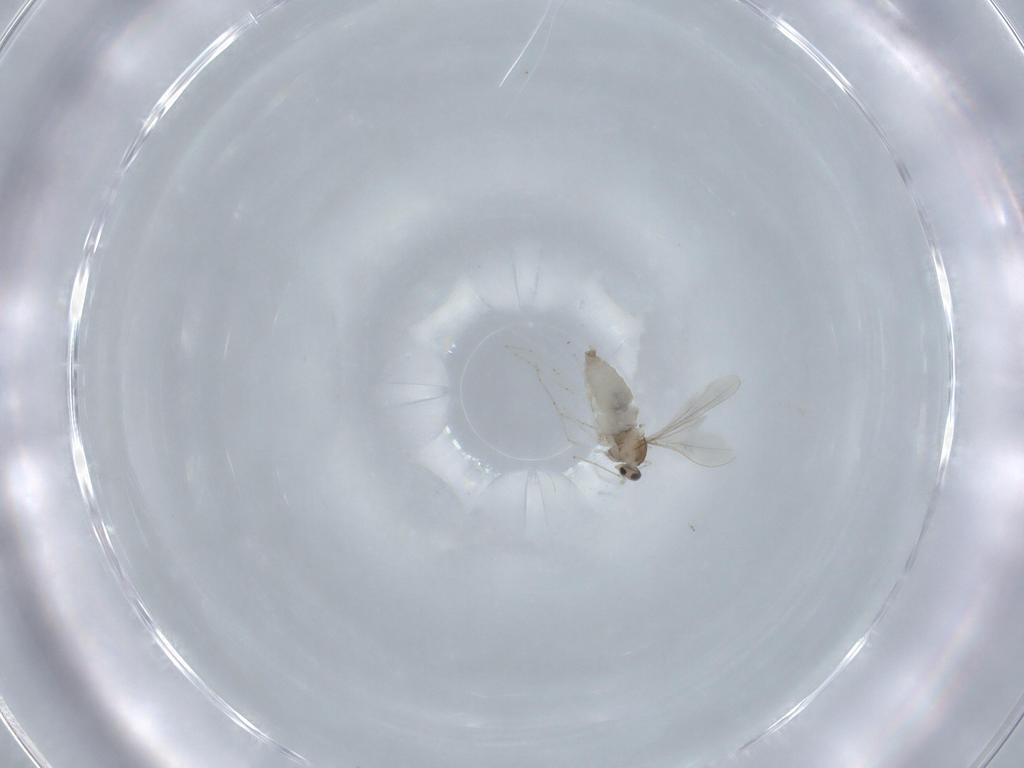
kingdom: Animalia
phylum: Arthropoda
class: Insecta
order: Diptera
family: Cecidomyiidae
